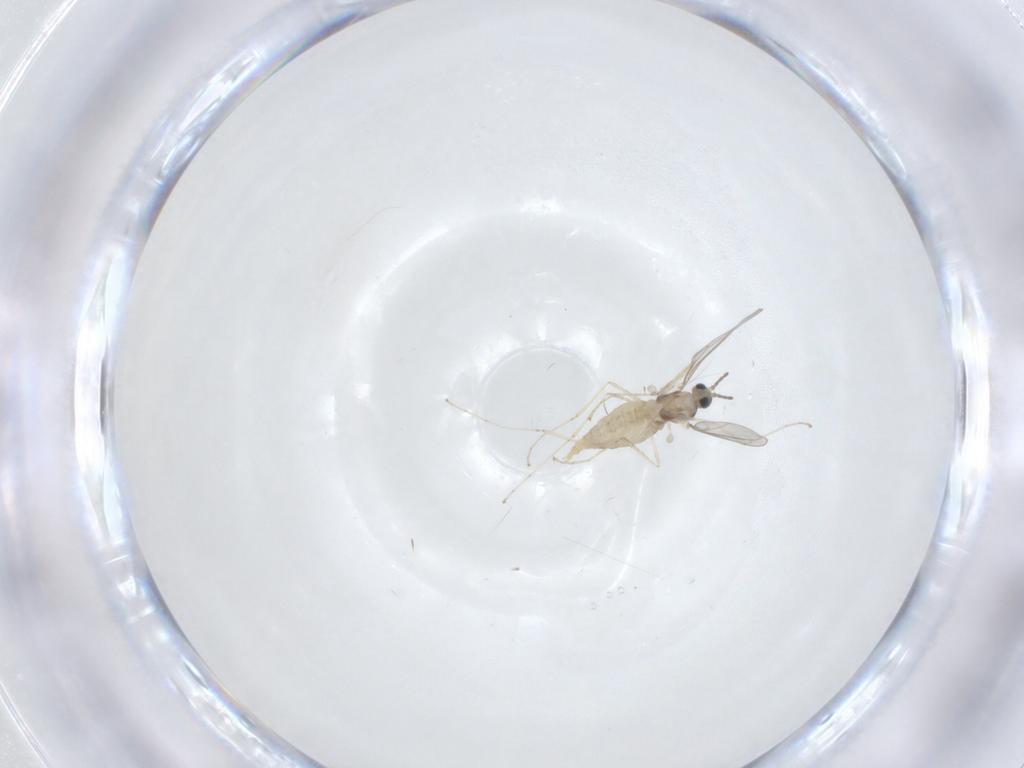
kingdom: Animalia
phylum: Arthropoda
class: Insecta
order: Diptera
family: Cecidomyiidae
